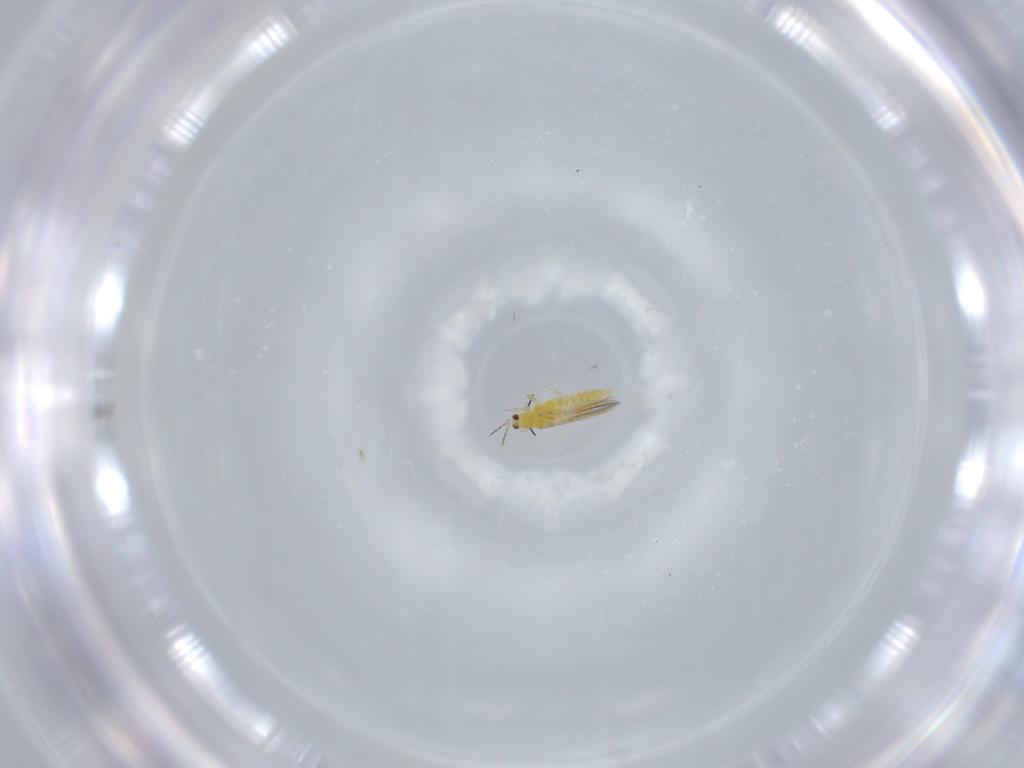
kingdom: Animalia
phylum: Arthropoda
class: Insecta
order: Thysanoptera
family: Thripidae
